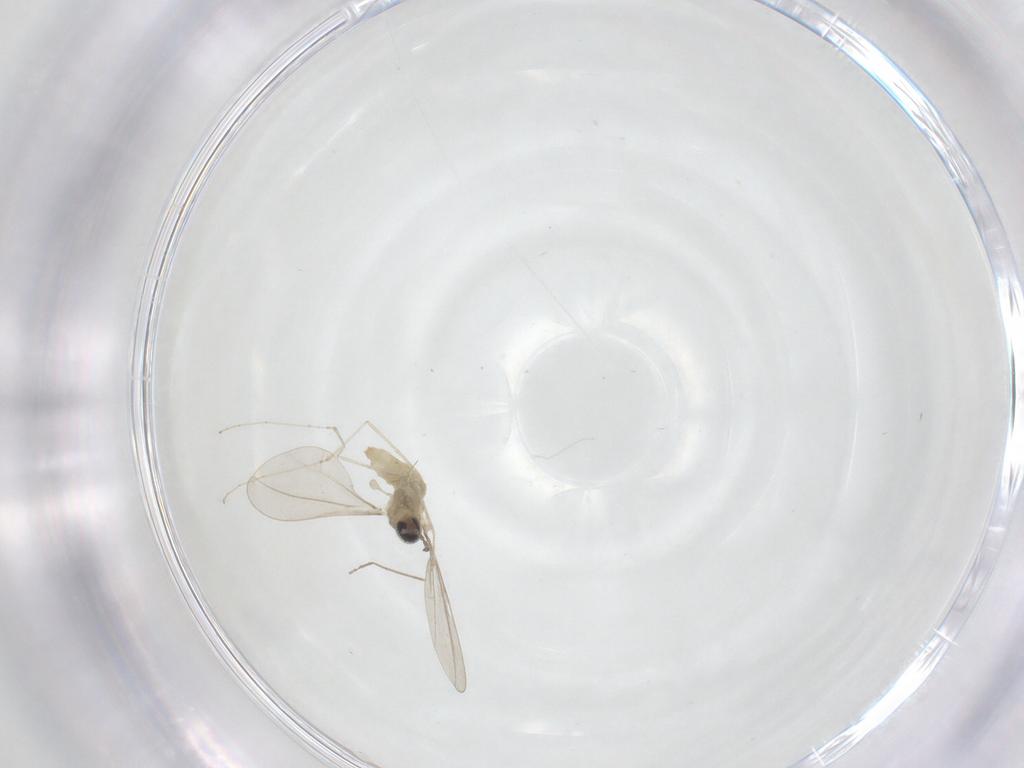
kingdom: Animalia
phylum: Arthropoda
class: Insecta
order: Diptera
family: Cecidomyiidae
